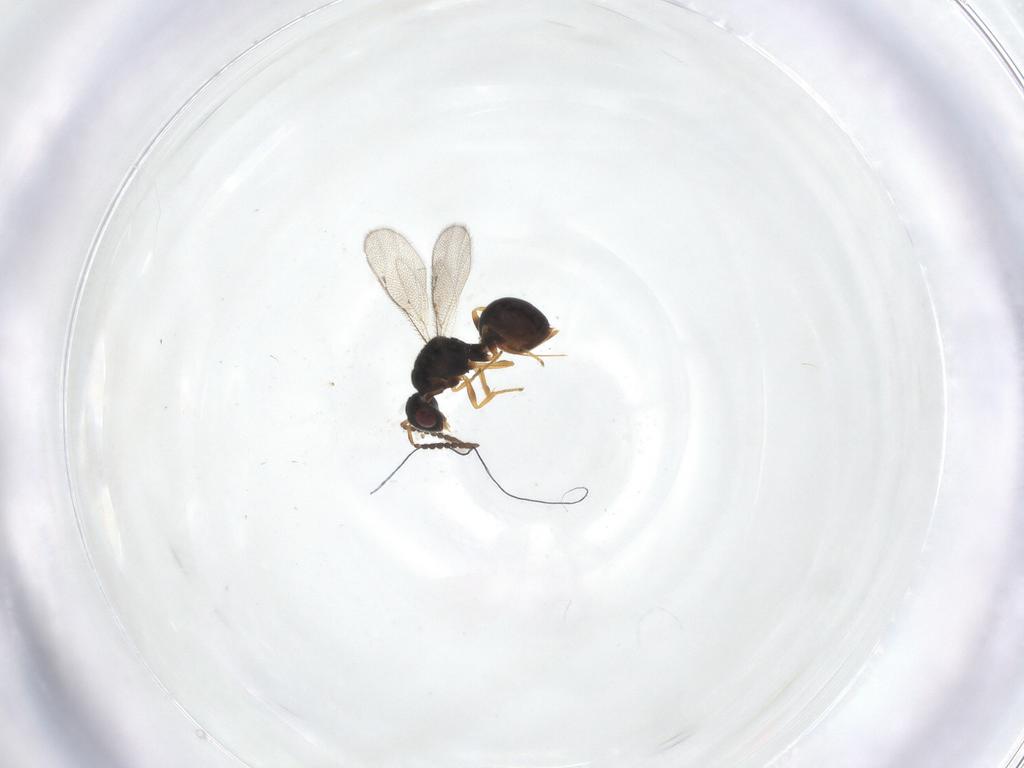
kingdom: Animalia
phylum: Arthropoda
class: Insecta
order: Hymenoptera
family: Eurytomidae
